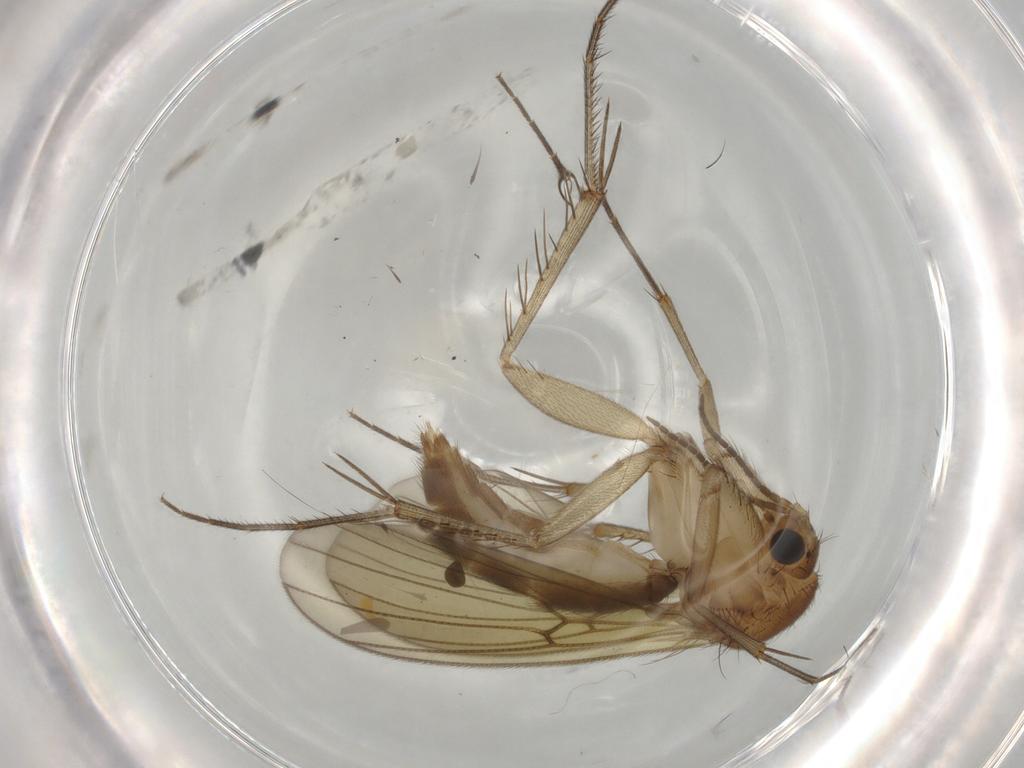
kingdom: Animalia
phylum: Arthropoda
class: Insecta
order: Diptera
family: Mycetophilidae
